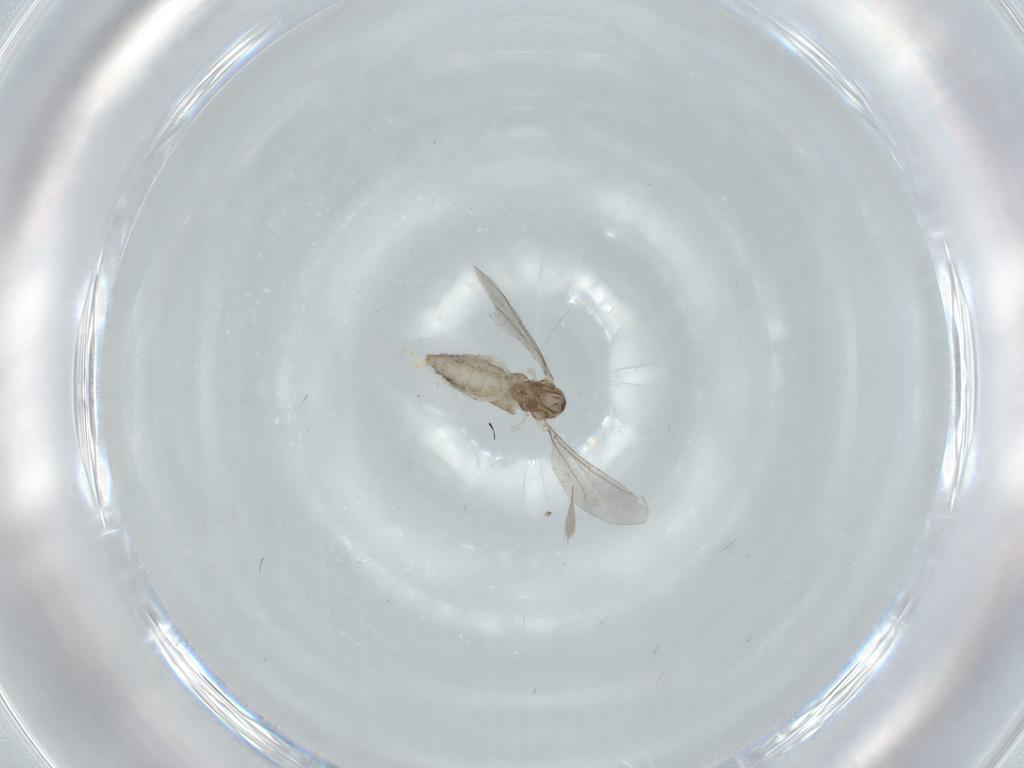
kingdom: Animalia
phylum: Arthropoda
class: Insecta
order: Diptera
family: Cecidomyiidae
